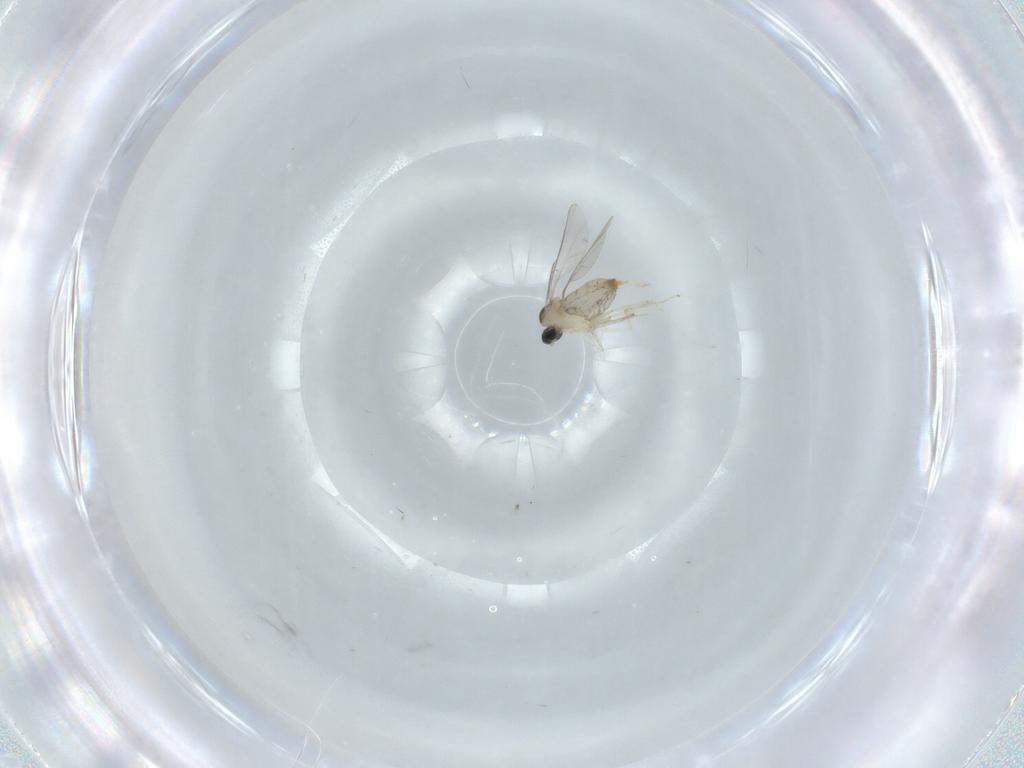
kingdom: Animalia
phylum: Arthropoda
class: Insecta
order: Diptera
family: Cecidomyiidae
